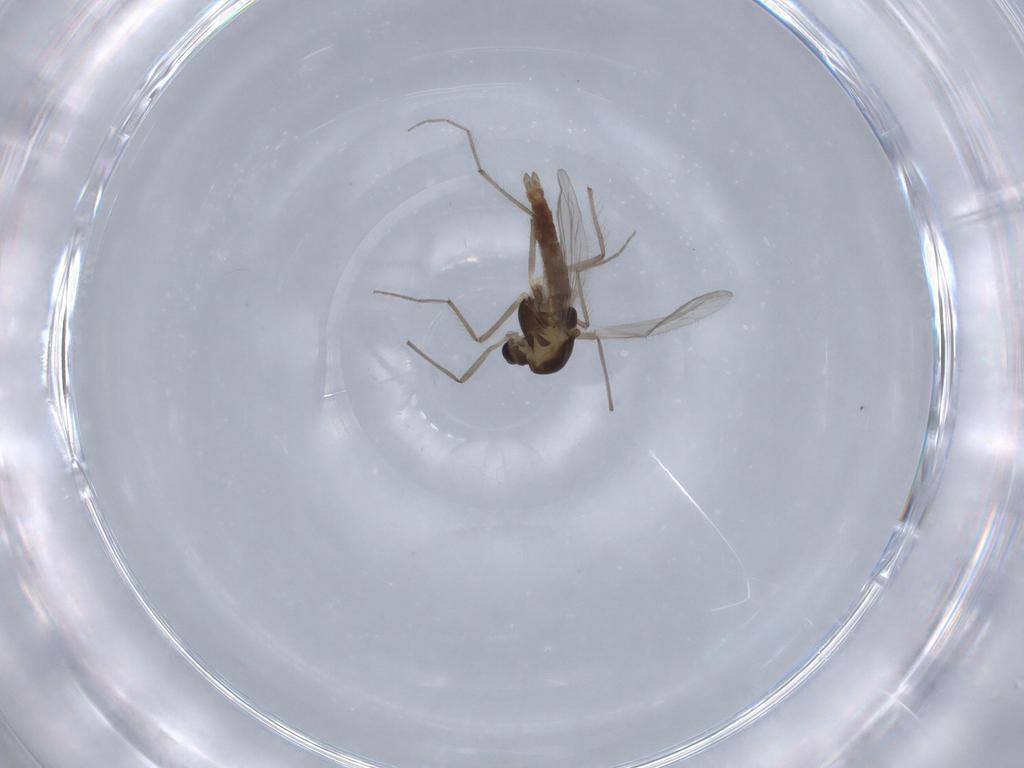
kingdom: Animalia
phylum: Arthropoda
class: Insecta
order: Diptera
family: Chironomidae
